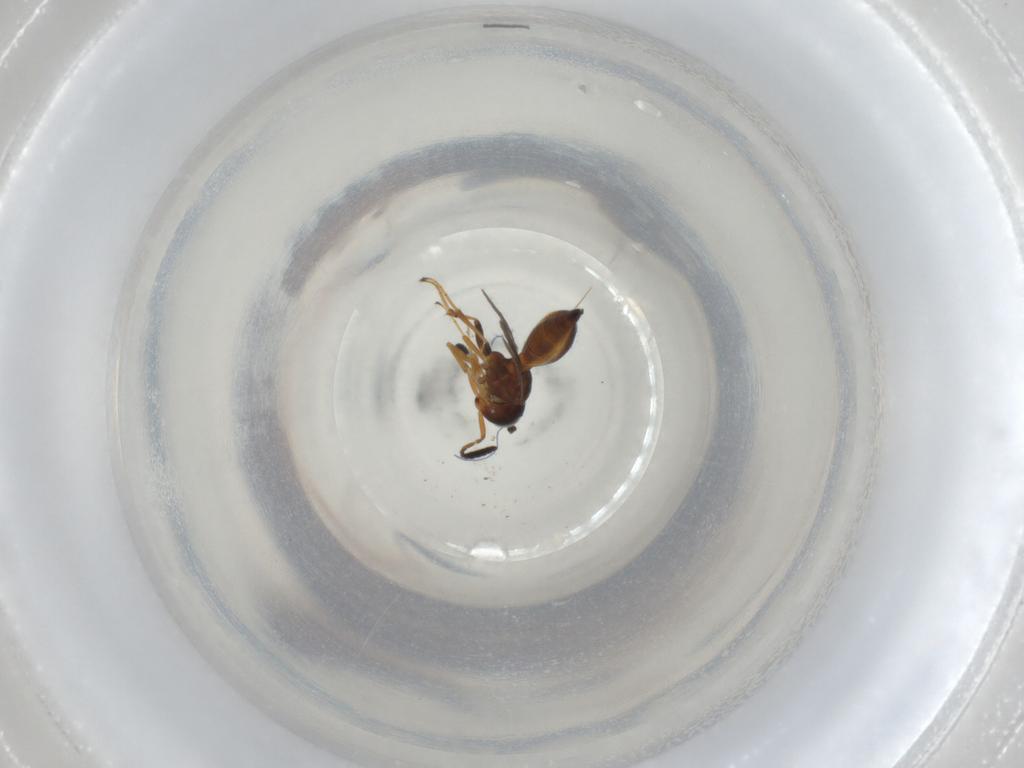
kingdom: Animalia
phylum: Arthropoda
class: Insecta
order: Hymenoptera
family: Scelionidae
